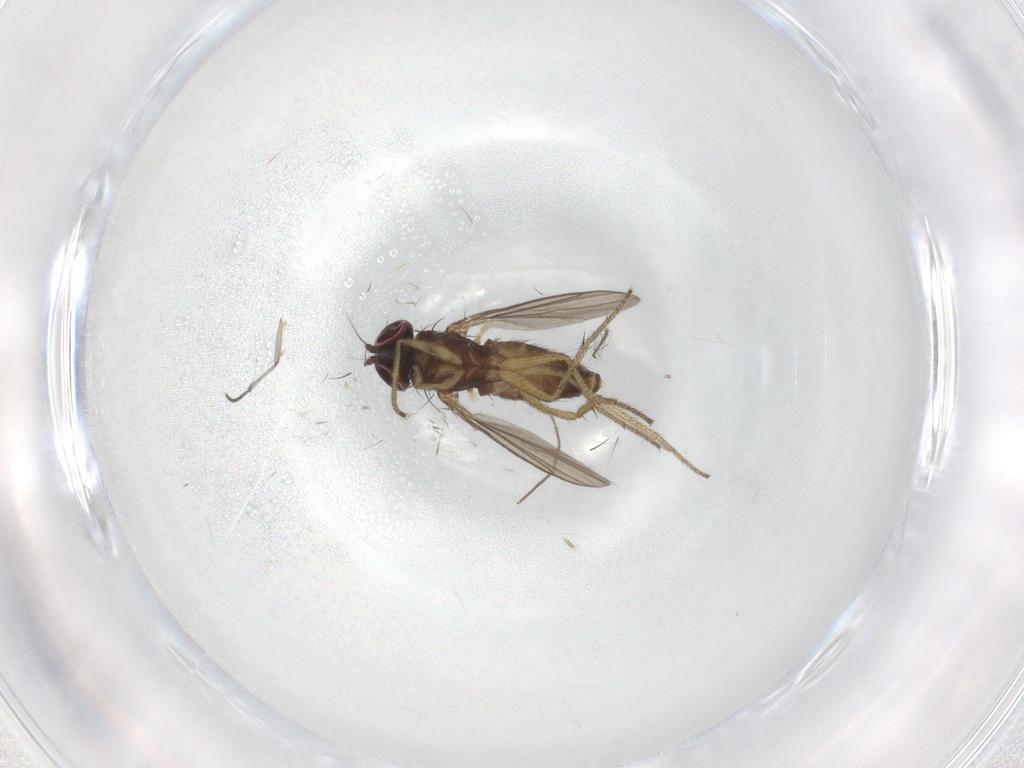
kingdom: Animalia
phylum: Arthropoda
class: Insecta
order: Diptera
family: Sciaridae
